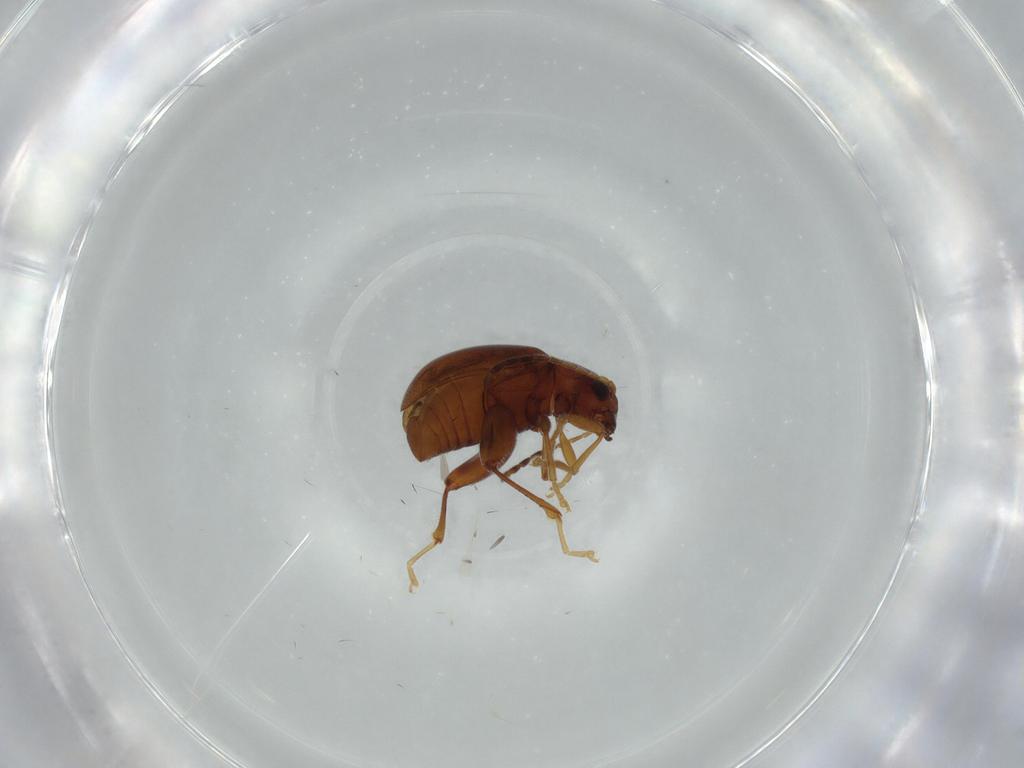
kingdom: Animalia
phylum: Arthropoda
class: Insecta
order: Coleoptera
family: Chrysomelidae
